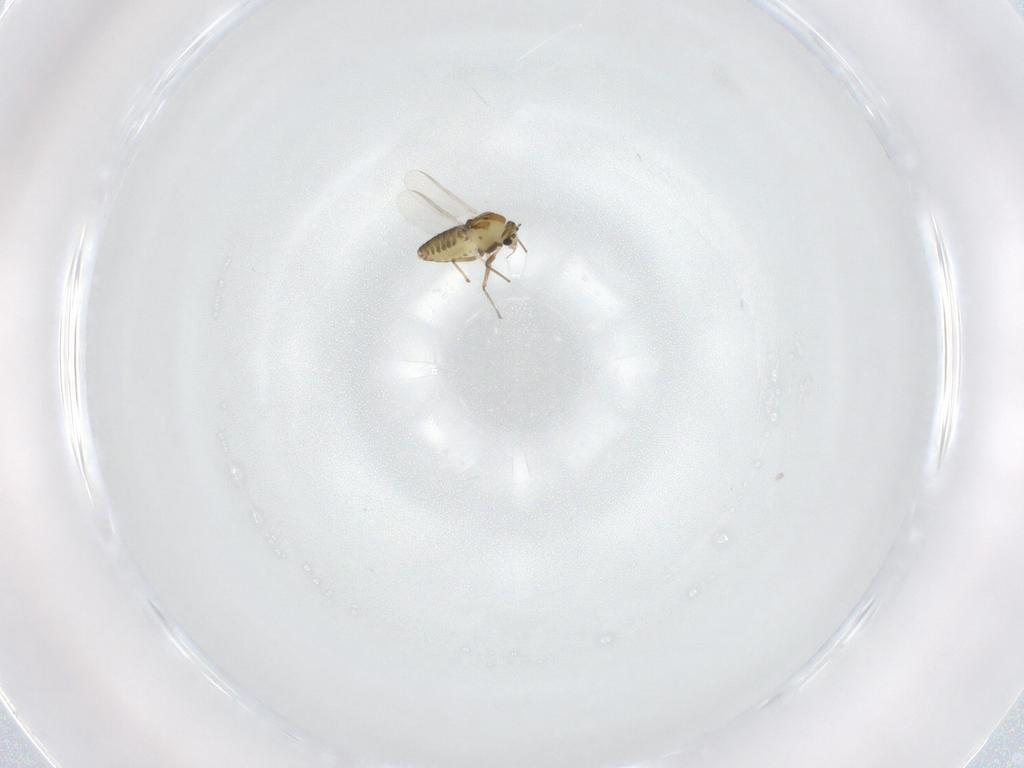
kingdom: Animalia
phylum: Arthropoda
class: Insecta
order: Diptera
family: Chironomidae
